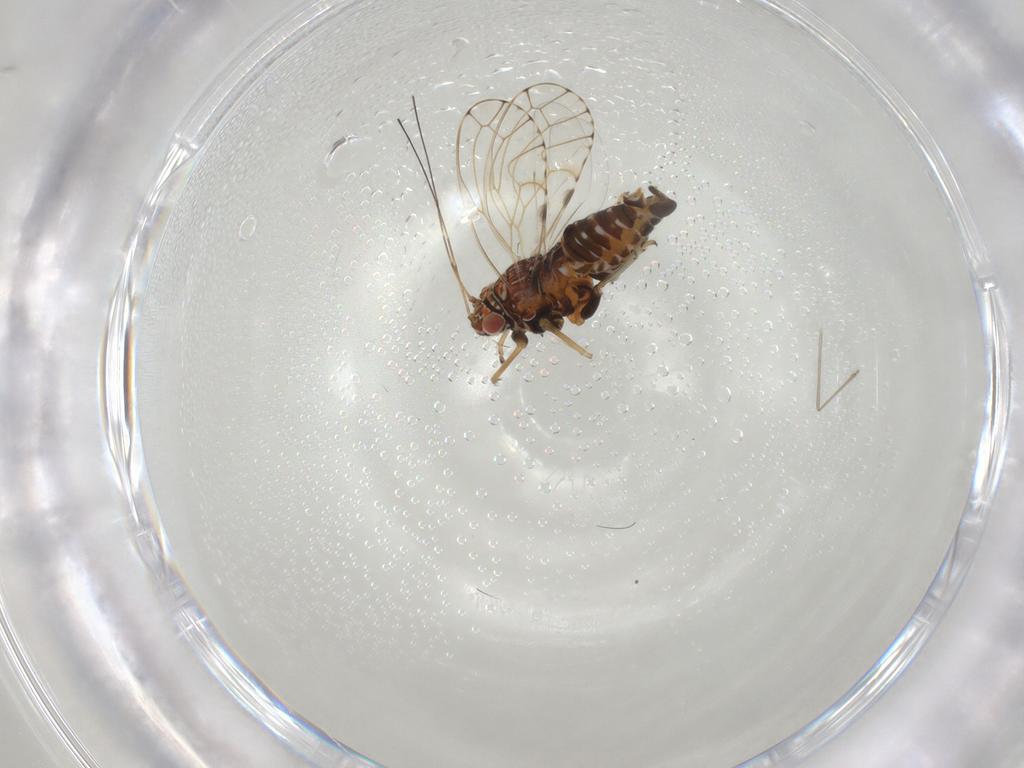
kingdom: Animalia
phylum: Arthropoda
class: Insecta
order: Hemiptera
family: Psylloidea_incertae_sedis
